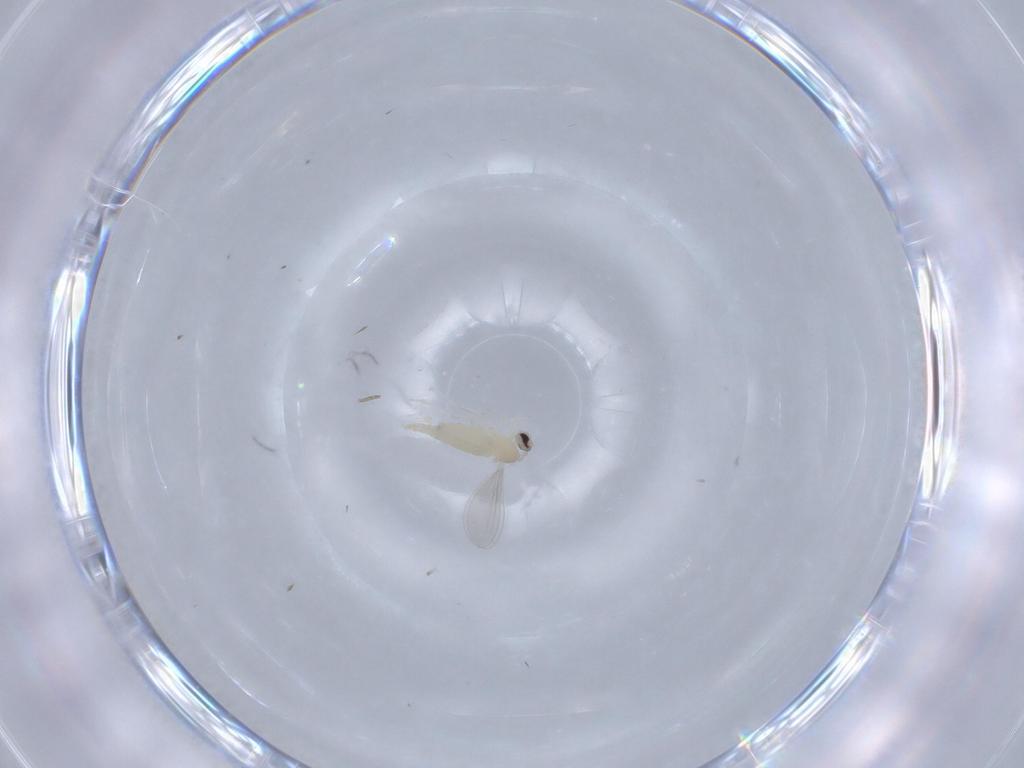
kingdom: Animalia
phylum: Arthropoda
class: Insecta
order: Diptera
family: Cecidomyiidae
